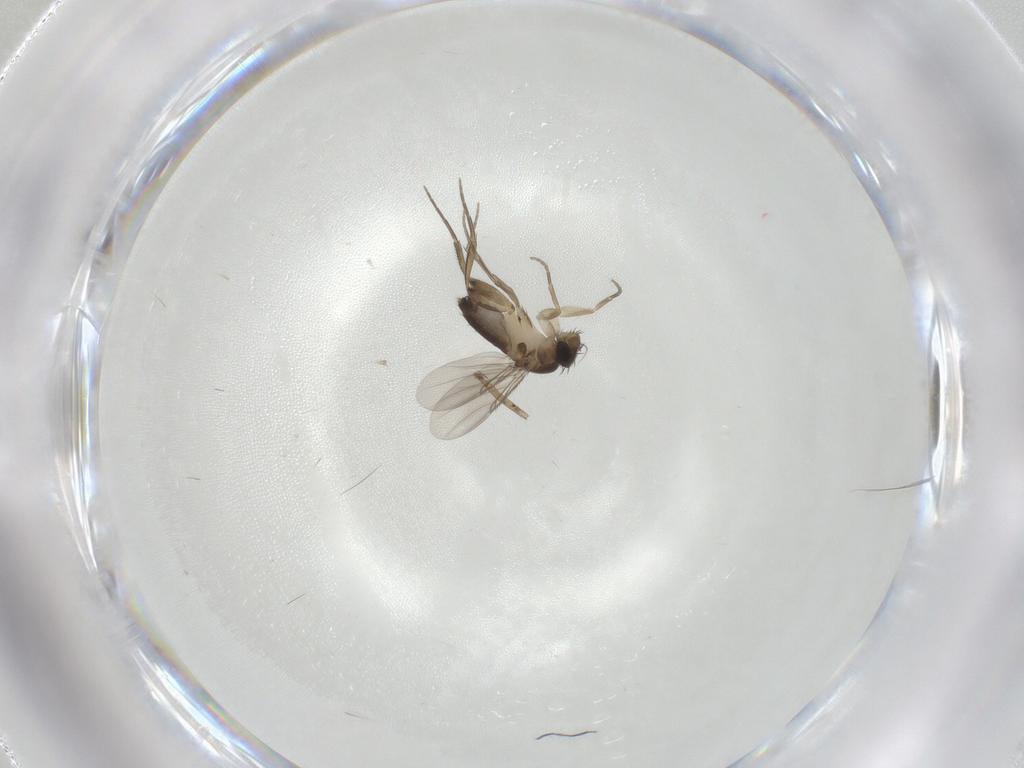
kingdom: Animalia
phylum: Arthropoda
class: Insecta
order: Diptera
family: Phoridae
